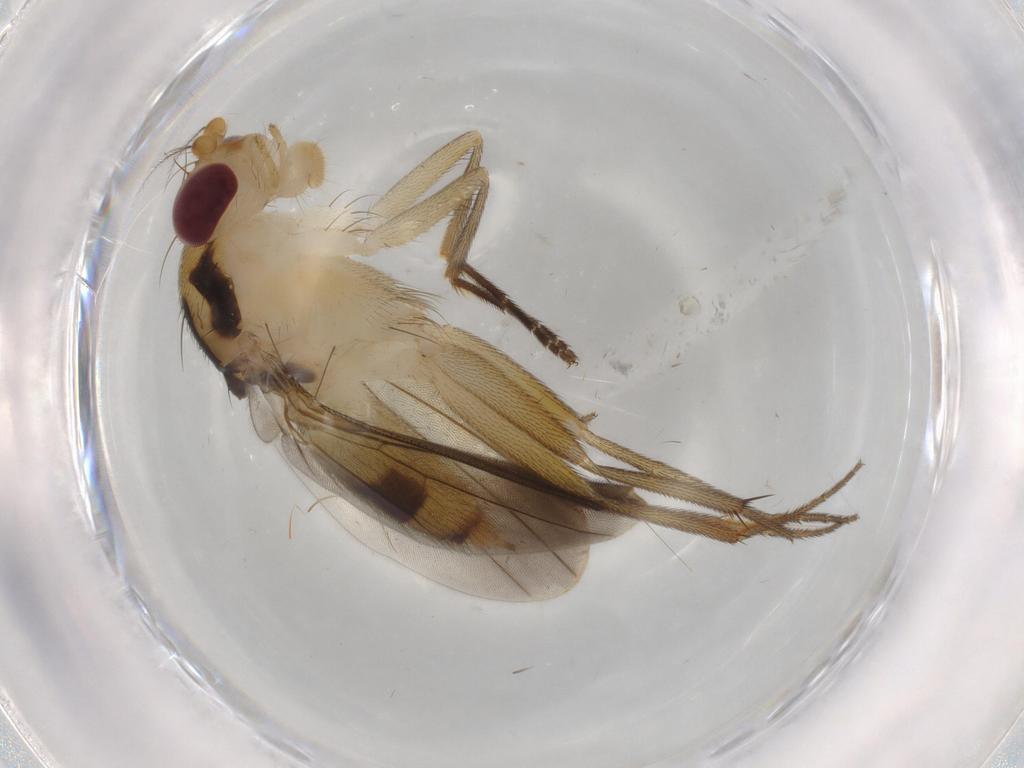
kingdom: Animalia
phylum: Arthropoda
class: Insecta
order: Diptera
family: Clusiidae
